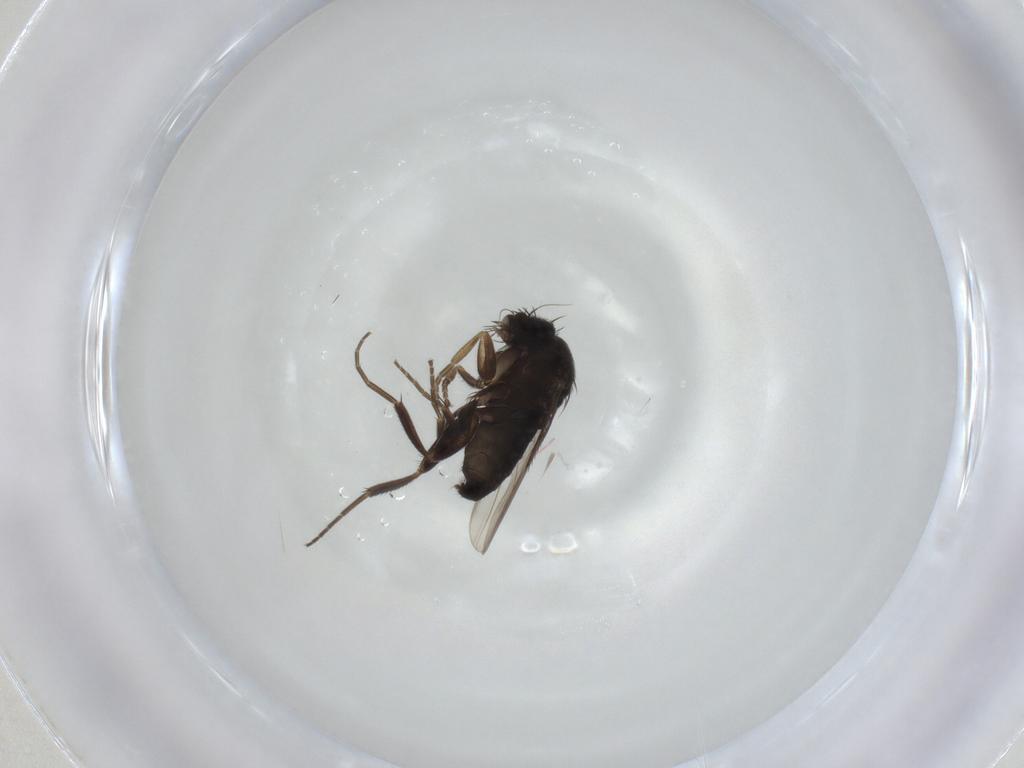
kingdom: Animalia
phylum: Arthropoda
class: Insecta
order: Diptera
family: Phoridae
